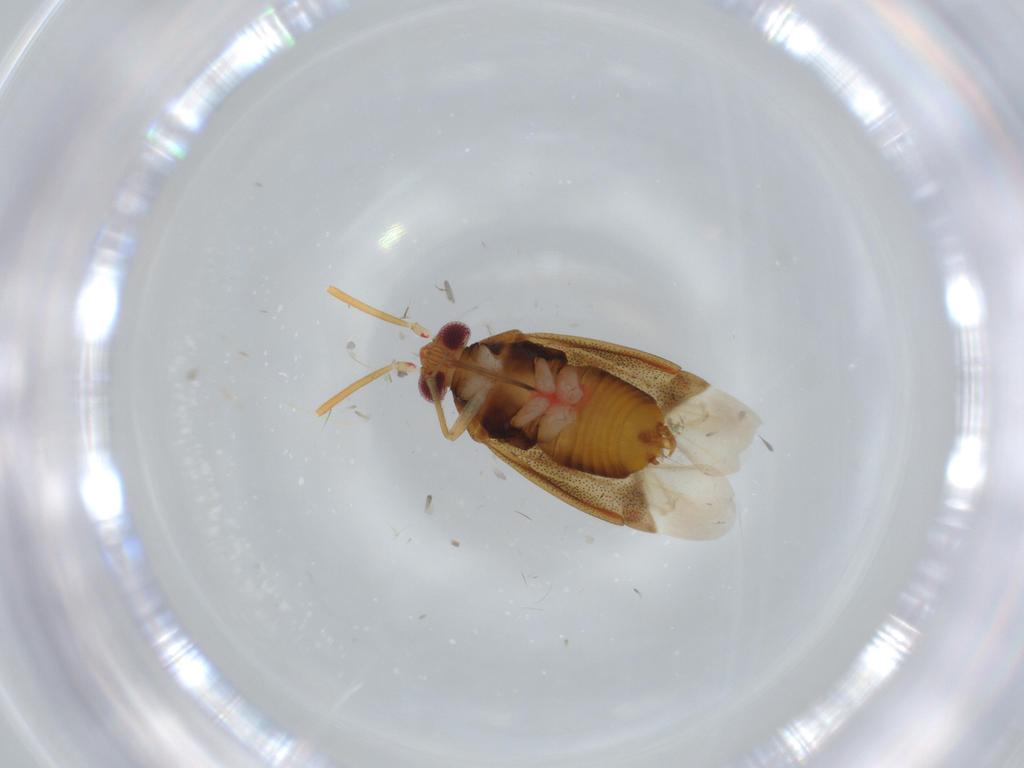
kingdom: Animalia
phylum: Arthropoda
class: Insecta
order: Hemiptera
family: Miridae
